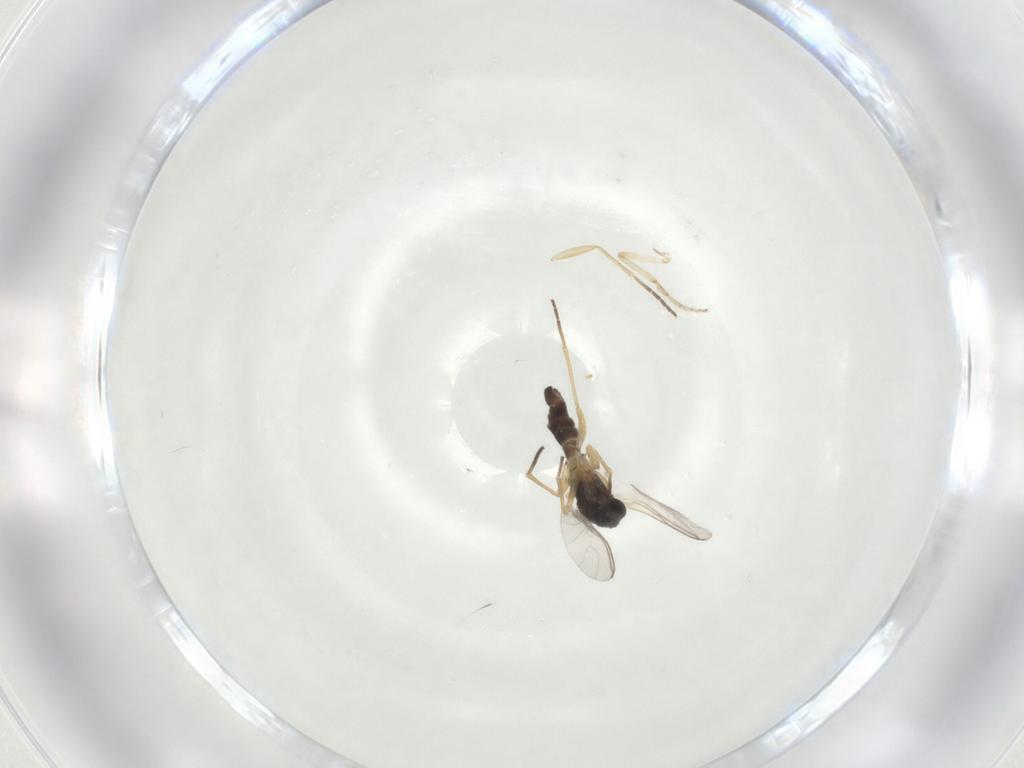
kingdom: Animalia
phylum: Arthropoda
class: Insecta
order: Diptera
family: Ceratopogonidae
